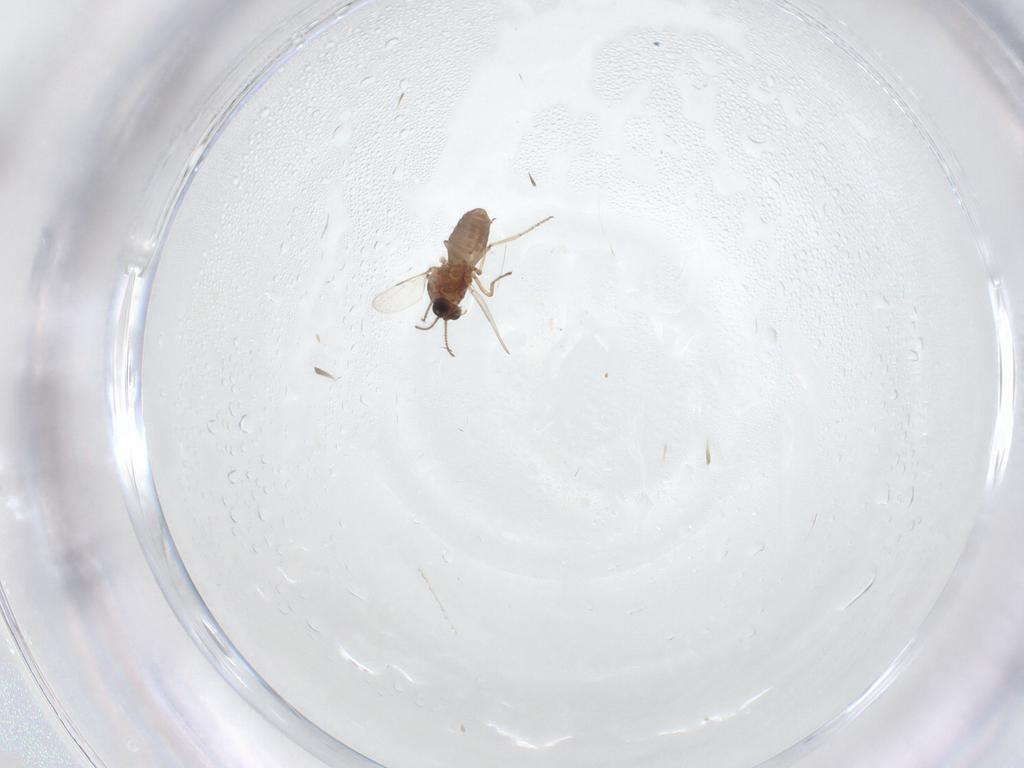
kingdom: Animalia
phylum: Arthropoda
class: Insecta
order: Diptera
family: Ceratopogonidae
